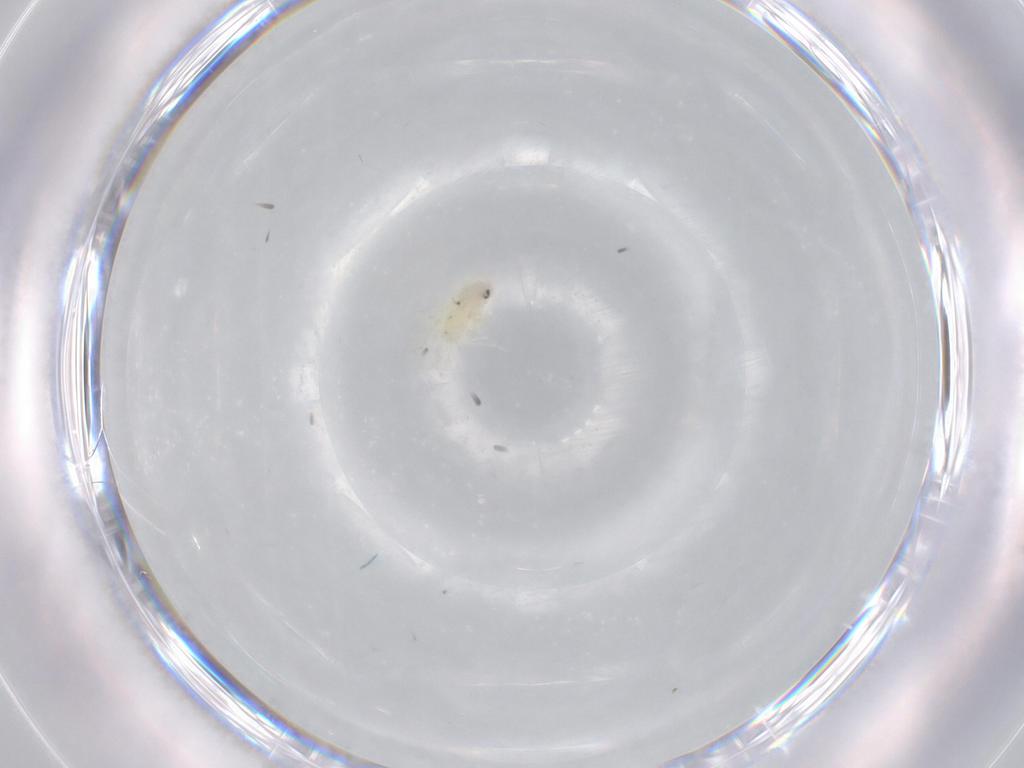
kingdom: Animalia
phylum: Arthropoda
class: Insecta
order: Hemiptera
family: Aleyrodidae
